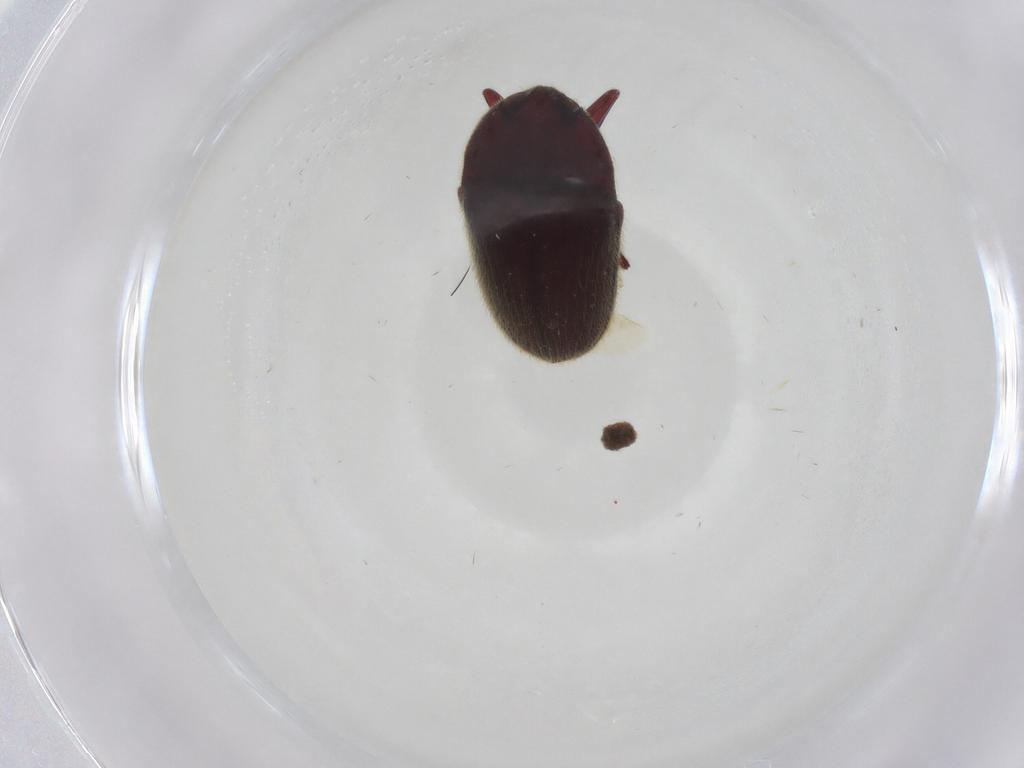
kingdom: Animalia
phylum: Arthropoda
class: Insecta
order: Coleoptera
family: Throscidae
